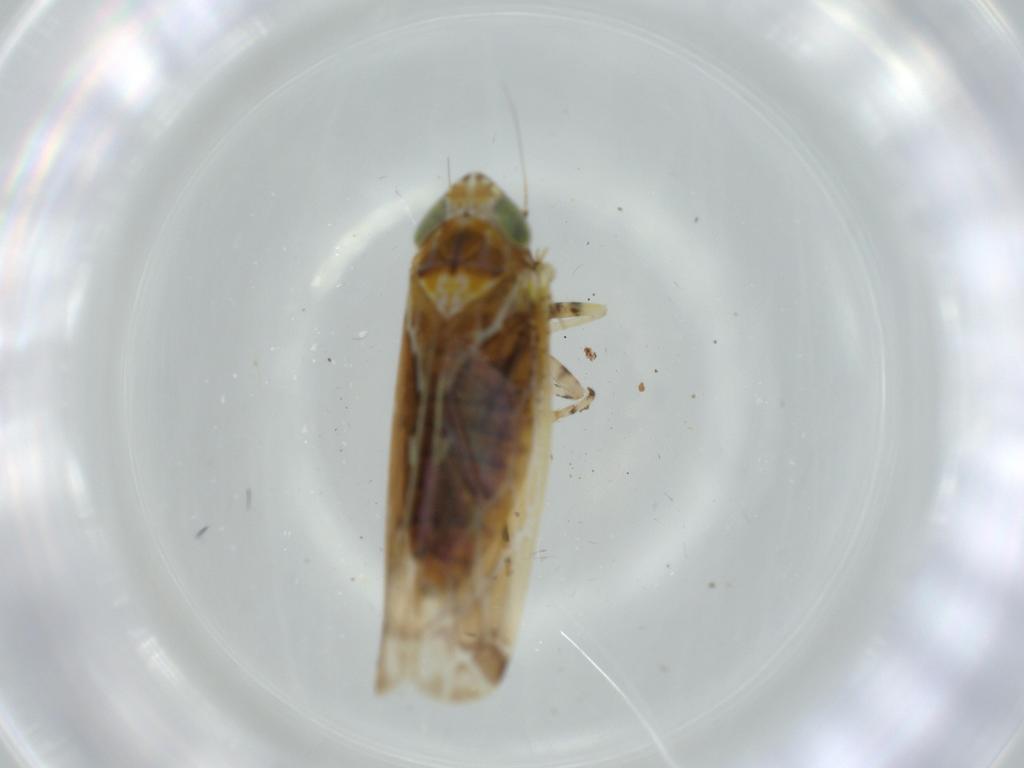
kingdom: Animalia
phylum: Arthropoda
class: Insecta
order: Hemiptera
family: Cicadellidae
